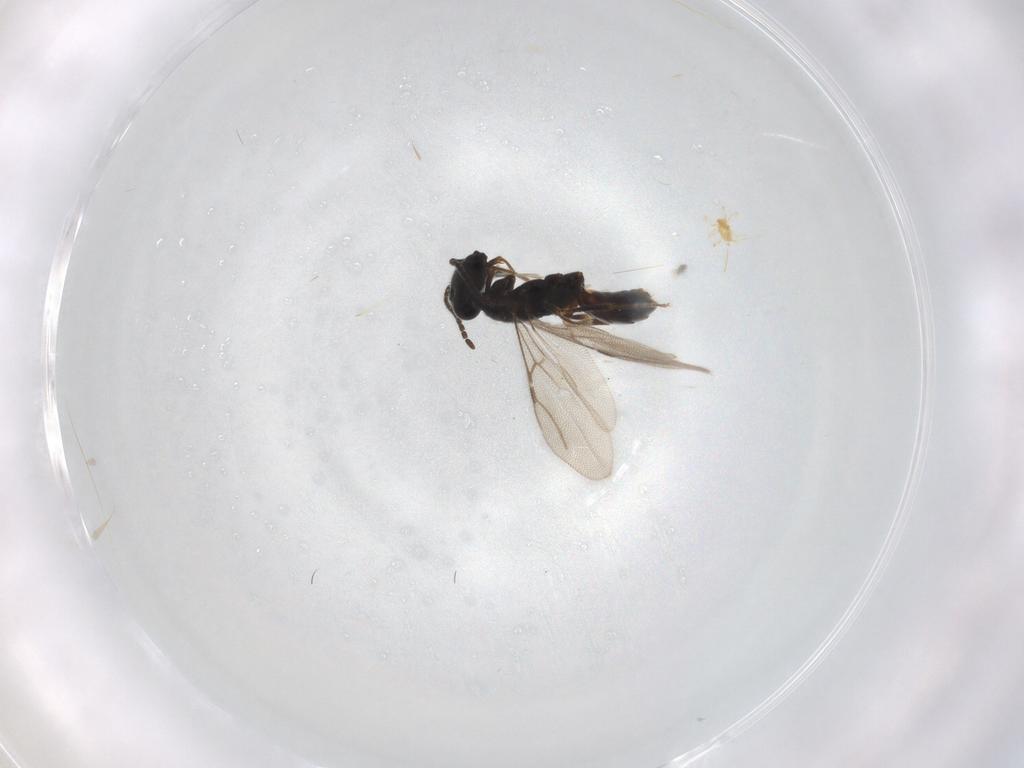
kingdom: Animalia
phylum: Arthropoda
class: Insecta
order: Hymenoptera
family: Bethylidae
